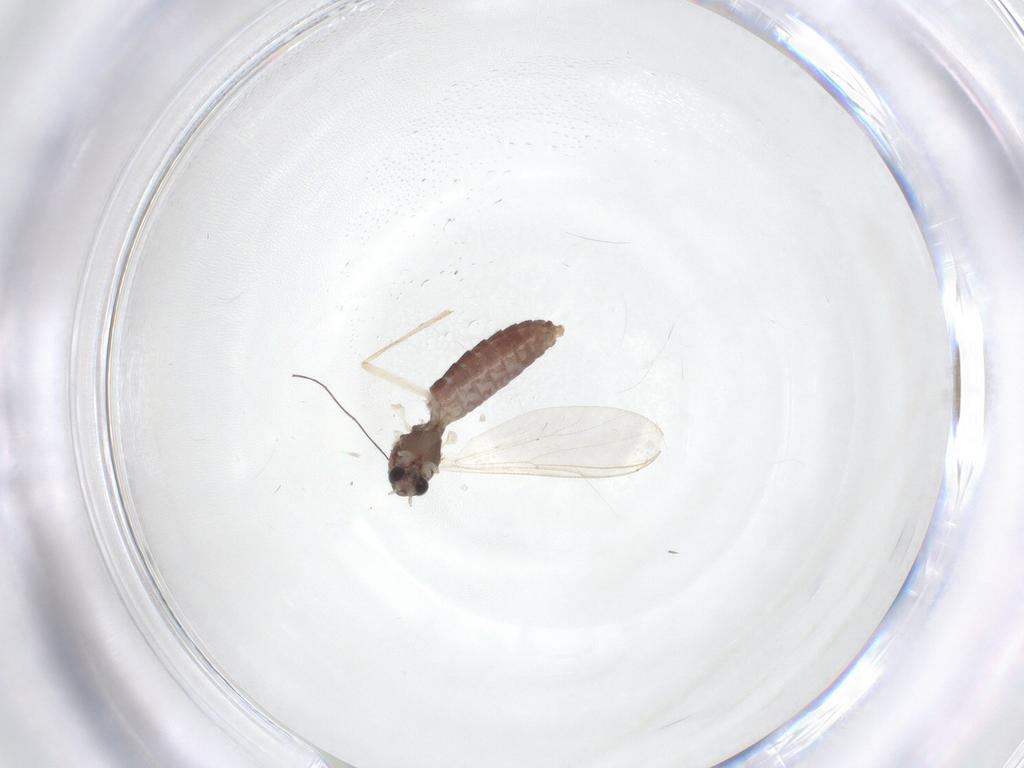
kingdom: Animalia
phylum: Arthropoda
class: Insecta
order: Diptera
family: Chironomidae
